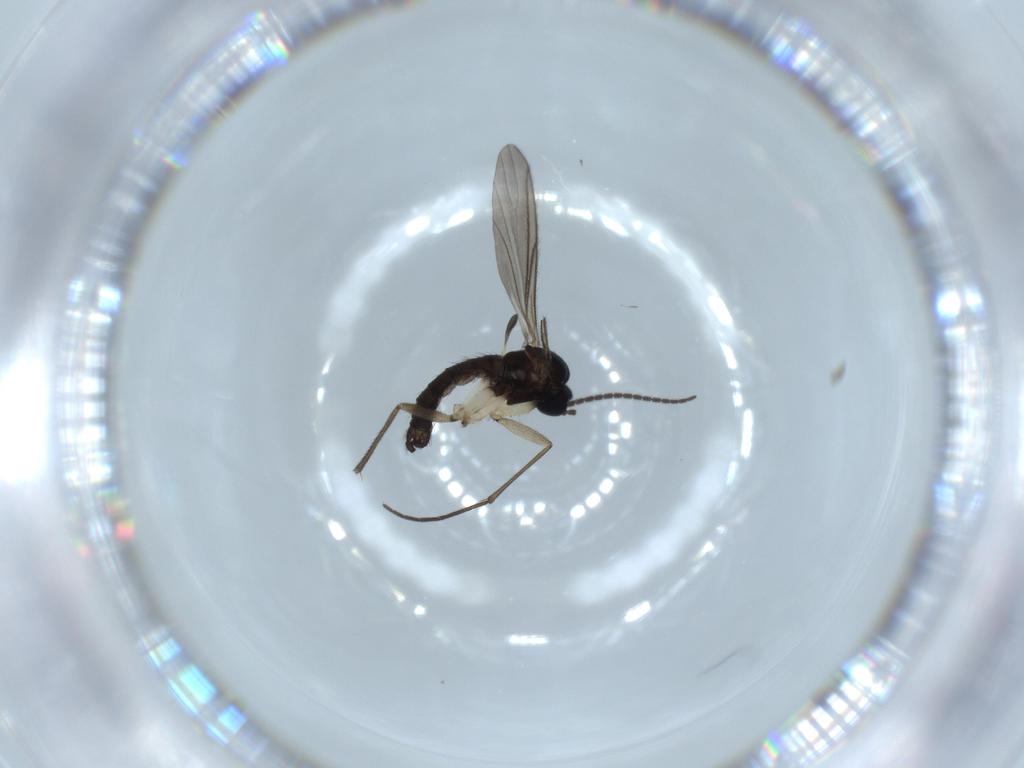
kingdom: Animalia
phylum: Arthropoda
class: Insecta
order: Diptera
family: Sciaridae
